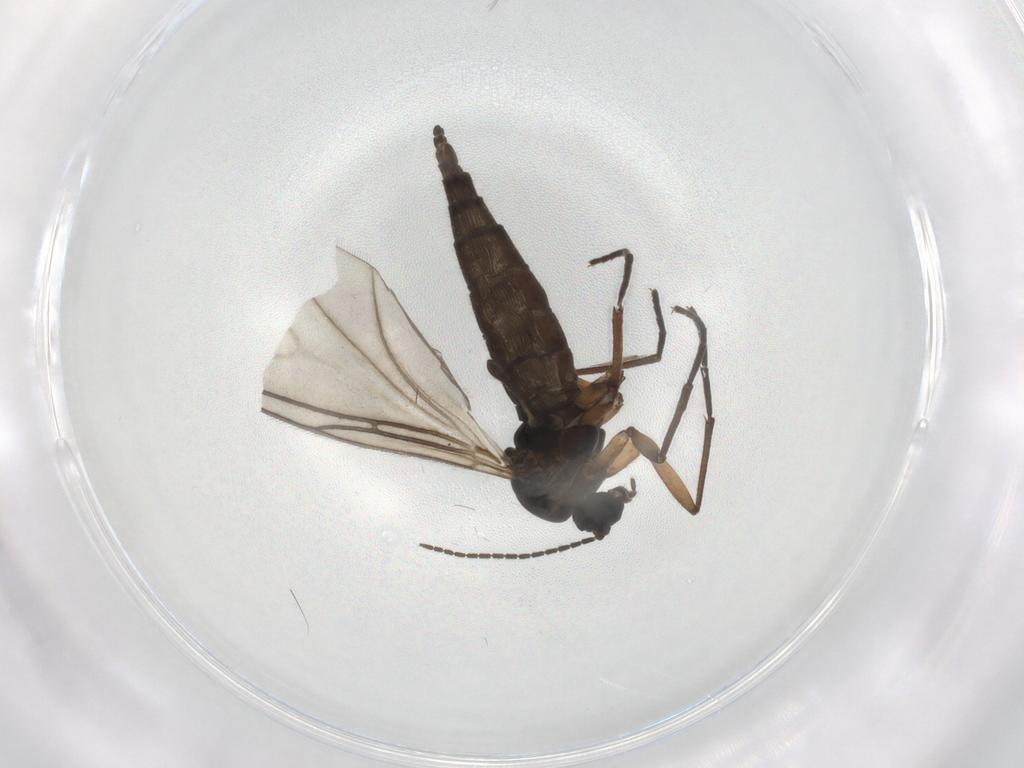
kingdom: Animalia
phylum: Arthropoda
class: Insecta
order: Diptera
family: Sciaridae
